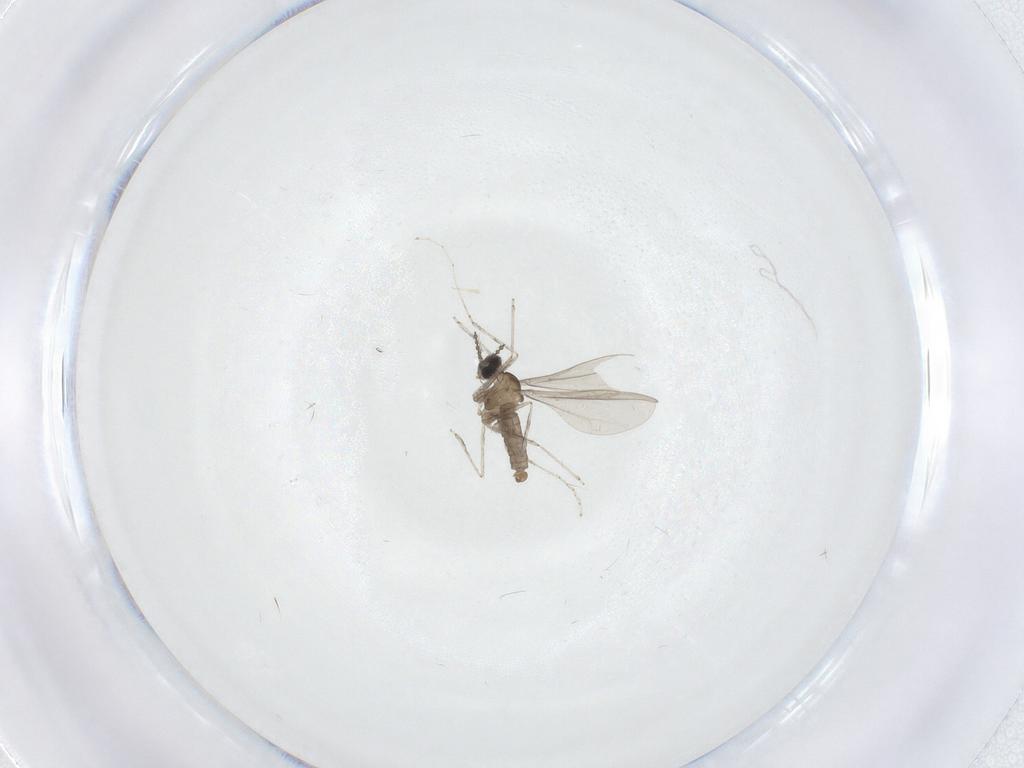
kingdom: Animalia
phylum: Arthropoda
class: Insecta
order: Diptera
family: Cecidomyiidae
